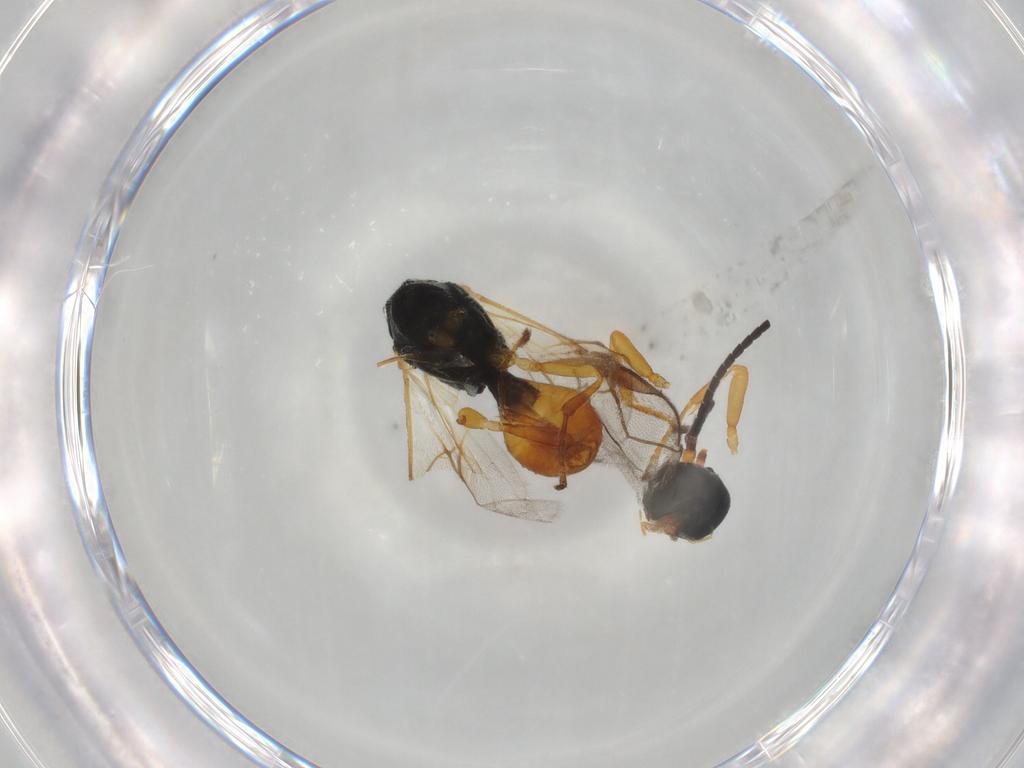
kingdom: Animalia
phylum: Arthropoda
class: Insecta
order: Hymenoptera
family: Braconidae
